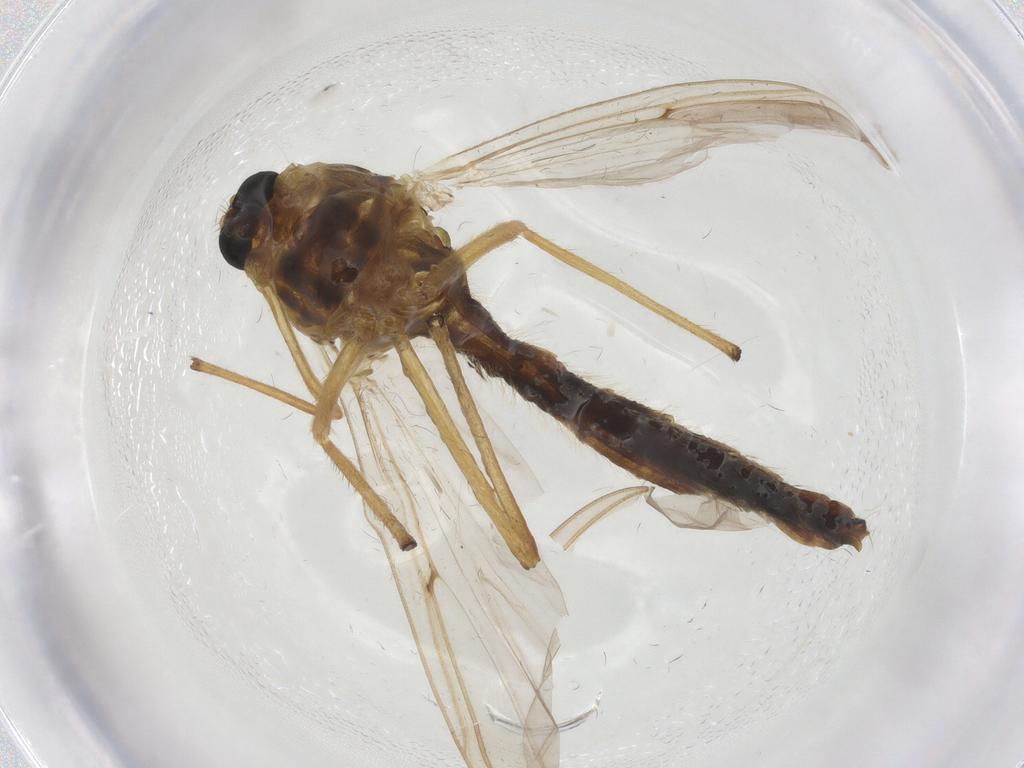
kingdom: Animalia
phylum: Arthropoda
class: Insecta
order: Diptera
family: Chironomidae
